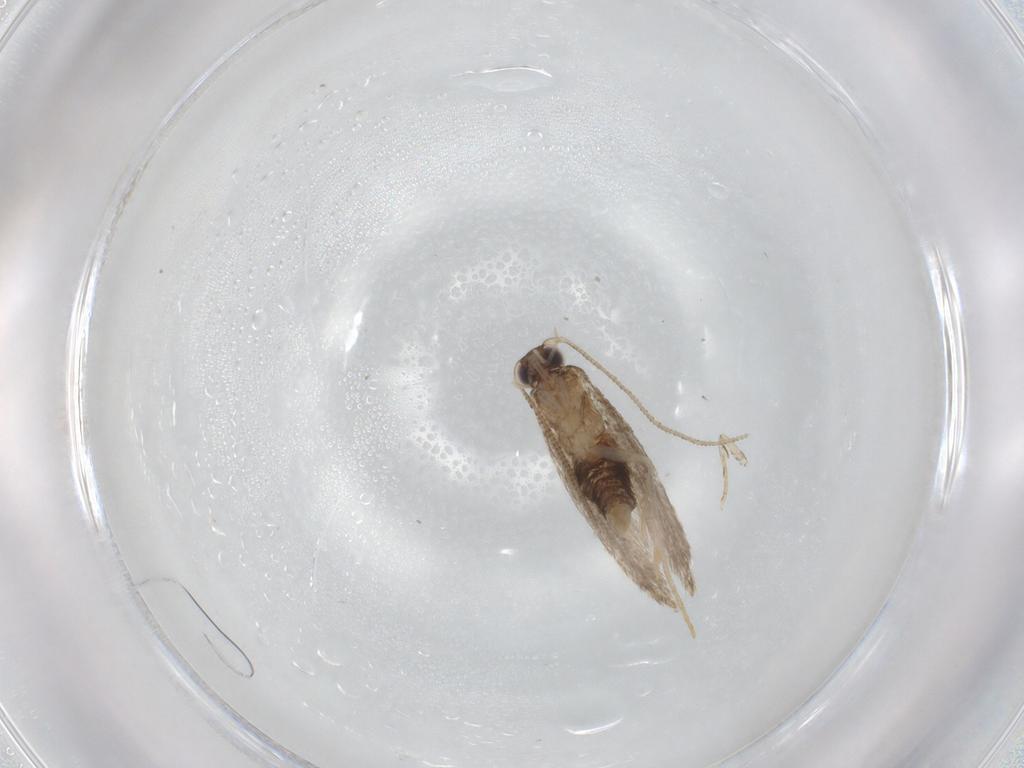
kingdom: Animalia
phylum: Arthropoda
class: Insecta
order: Lepidoptera
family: Tineidae
